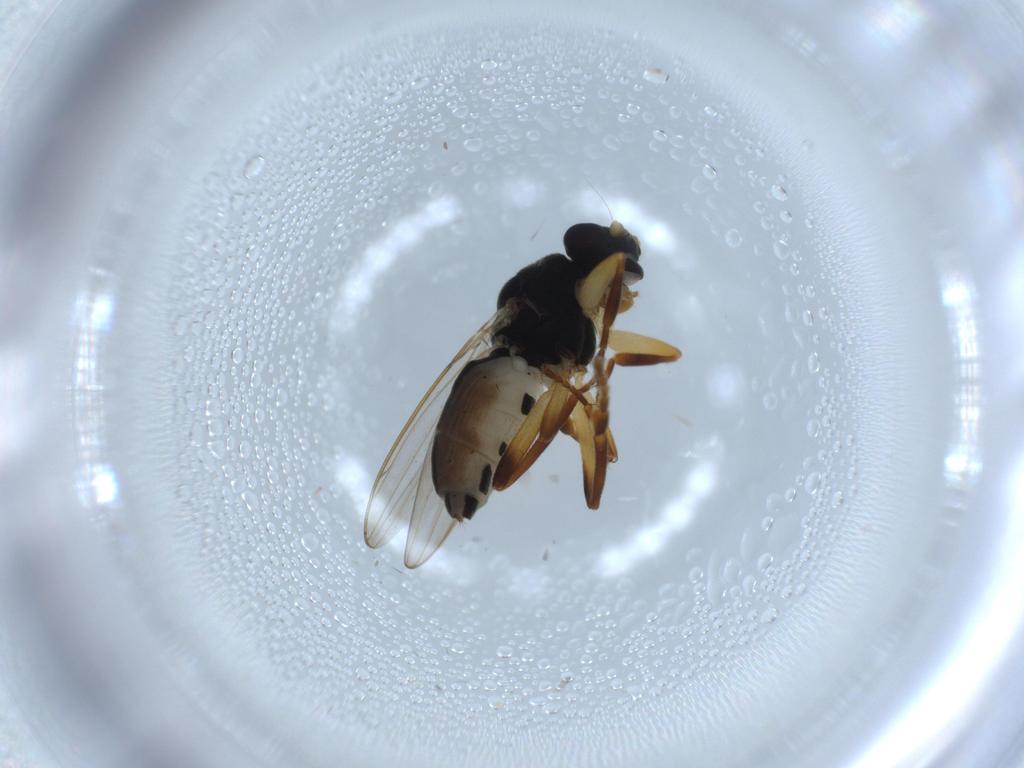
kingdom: Animalia
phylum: Arthropoda
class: Insecta
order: Diptera
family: Sphaeroceridae
